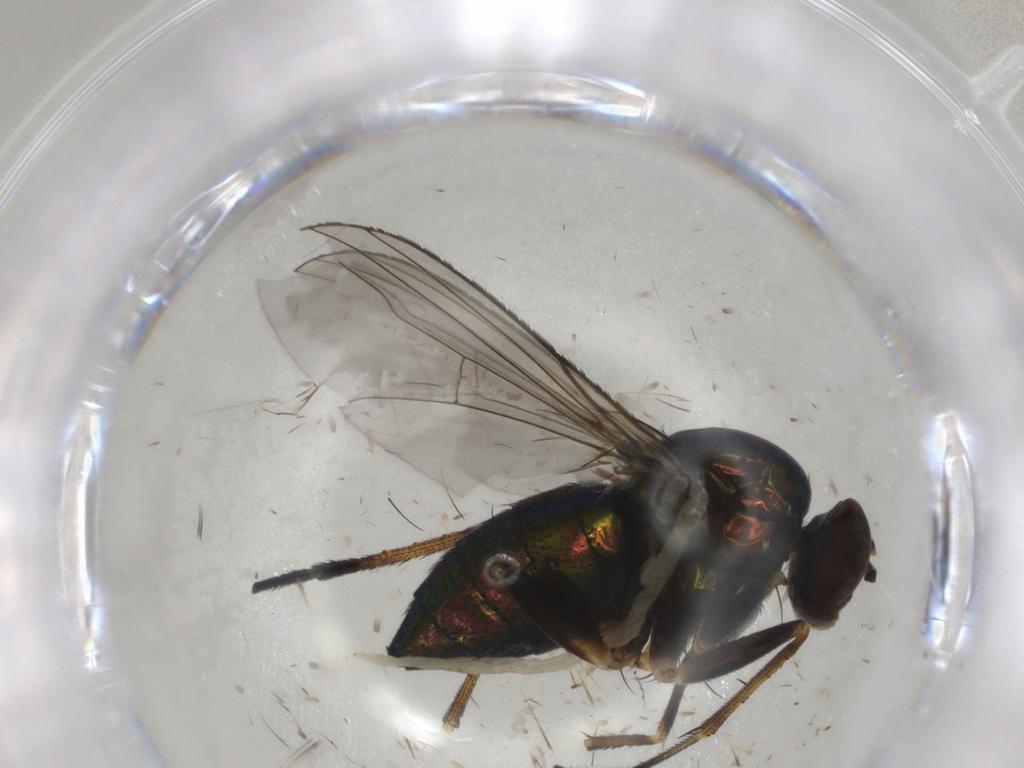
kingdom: Animalia
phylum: Arthropoda
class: Insecta
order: Diptera
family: Dolichopodidae
